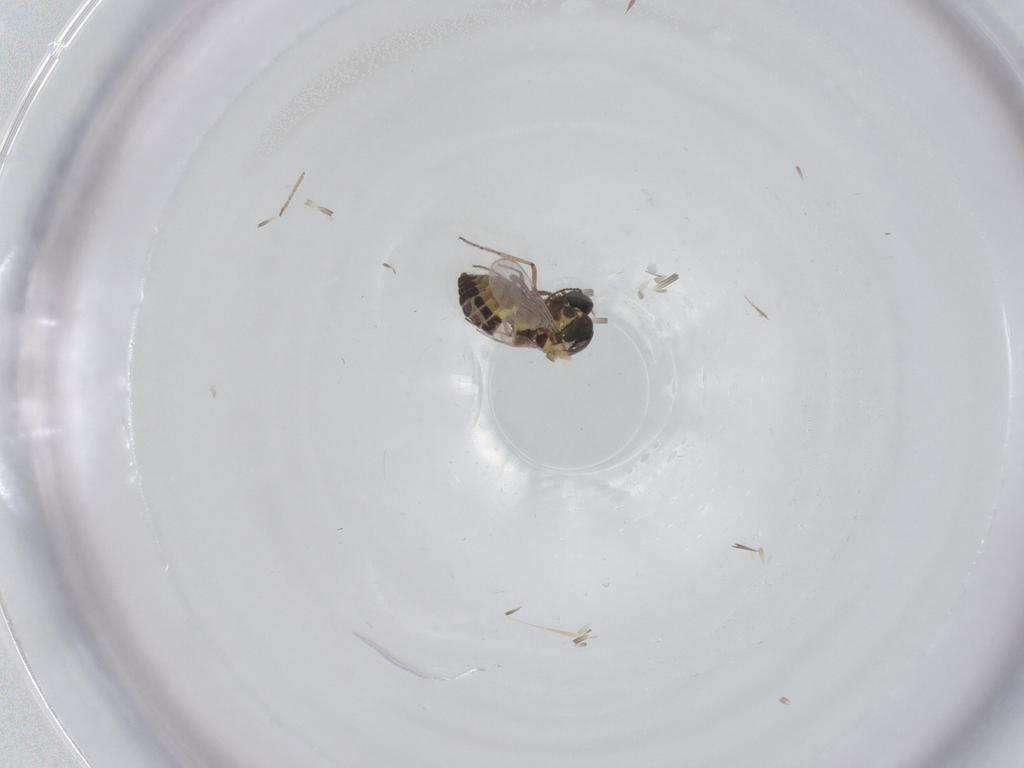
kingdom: Animalia
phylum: Arthropoda
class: Insecta
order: Diptera
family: Ceratopogonidae
